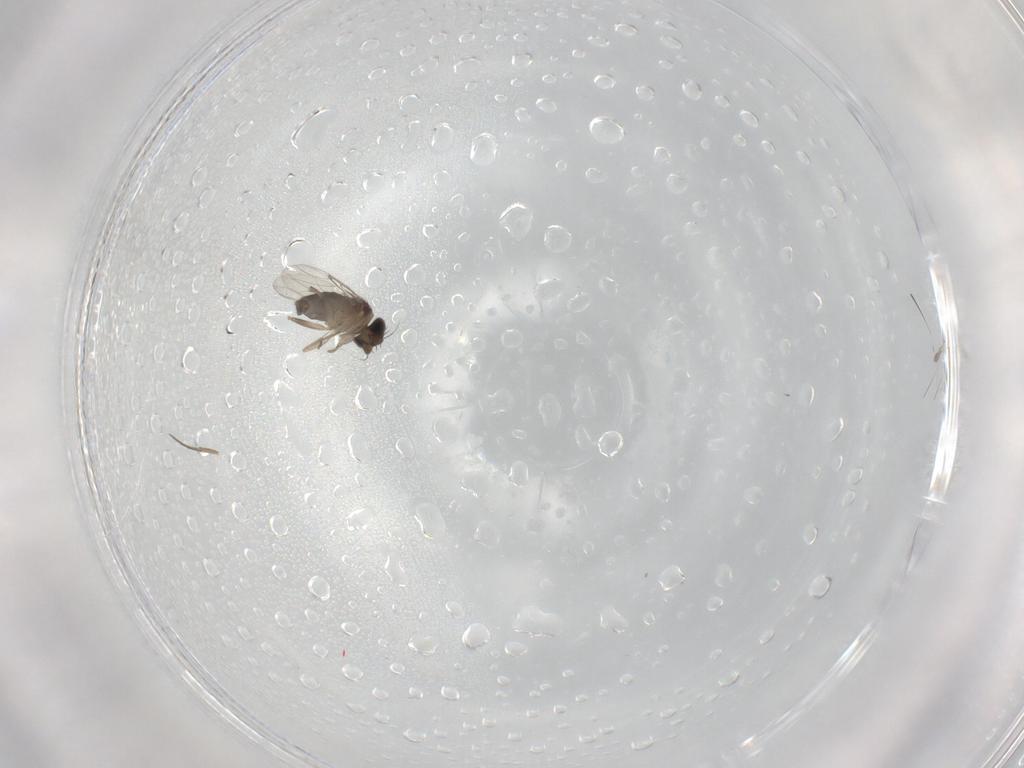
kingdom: Animalia
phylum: Arthropoda
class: Insecta
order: Diptera
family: Phoridae
